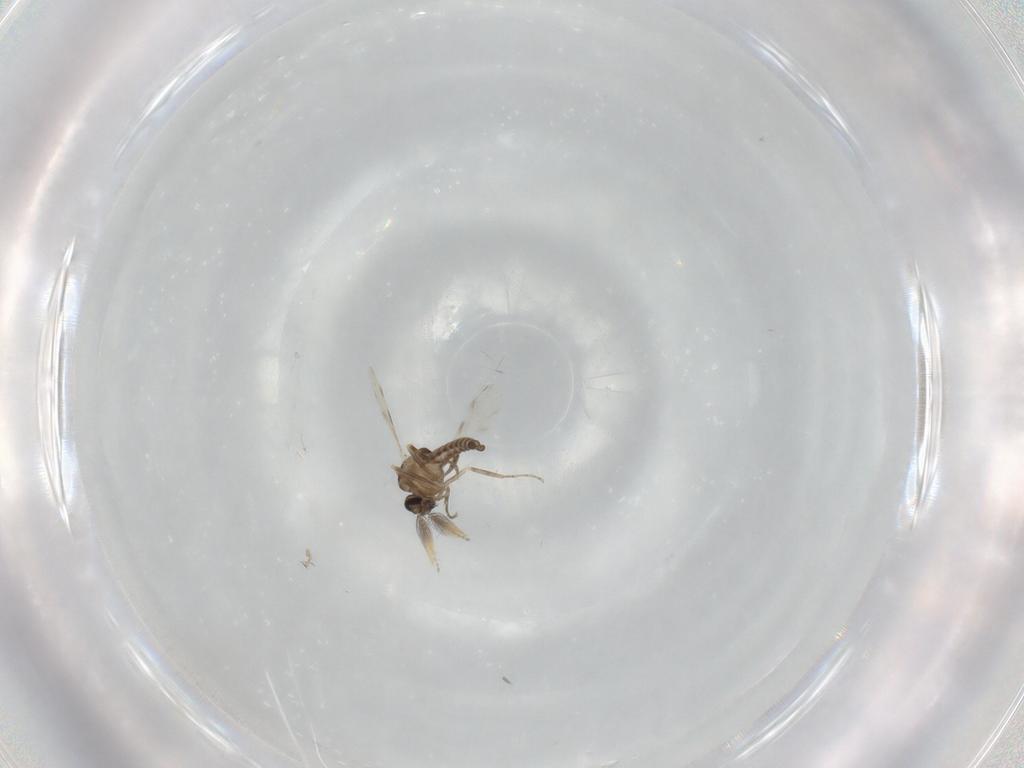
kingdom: Animalia
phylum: Arthropoda
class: Insecta
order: Diptera
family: Ceratopogonidae
